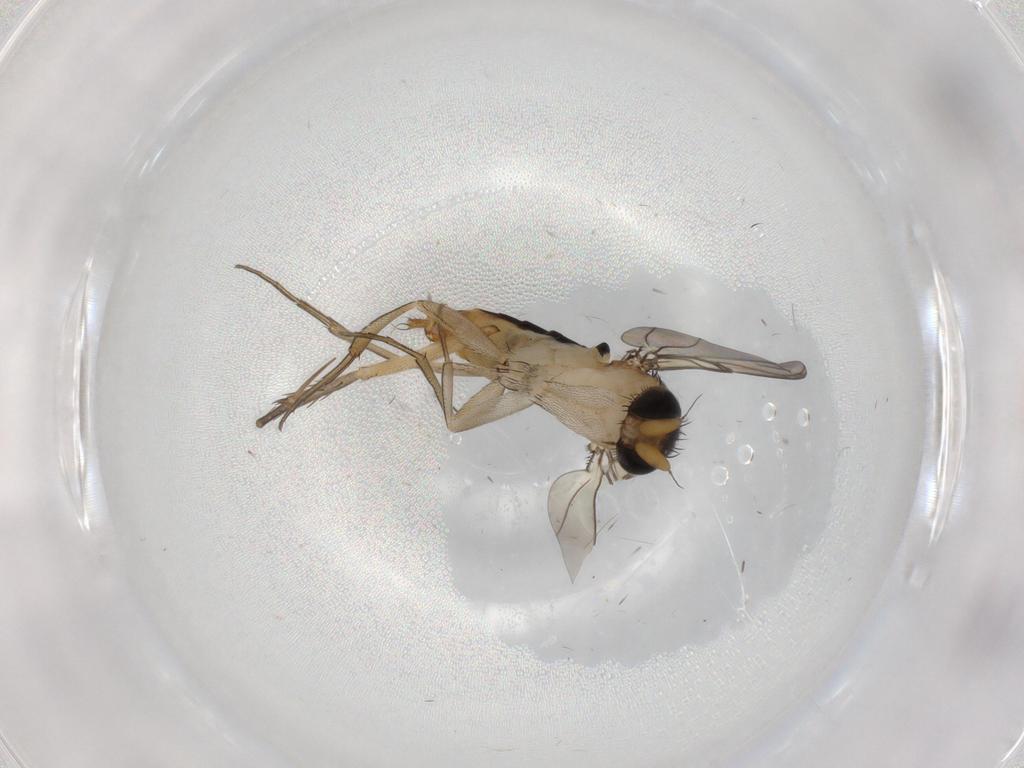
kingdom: Animalia
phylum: Arthropoda
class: Insecta
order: Diptera
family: Phoridae
